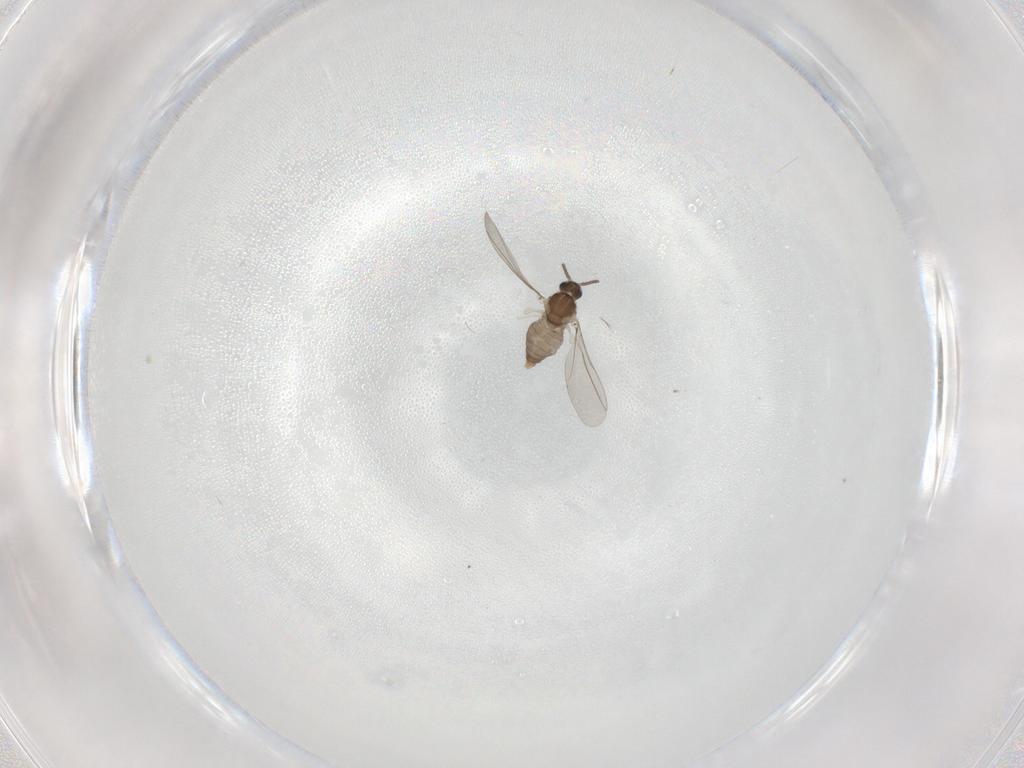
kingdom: Animalia
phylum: Arthropoda
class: Insecta
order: Diptera
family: Cecidomyiidae
